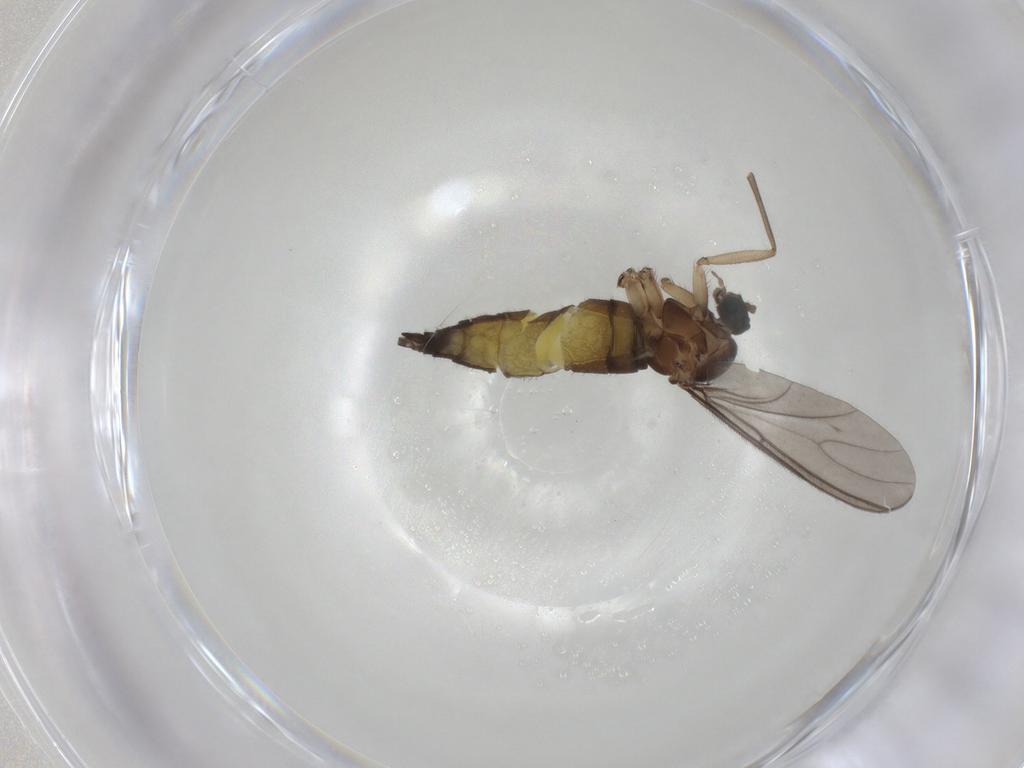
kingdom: Animalia
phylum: Arthropoda
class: Insecta
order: Diptera
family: Sciaridae
